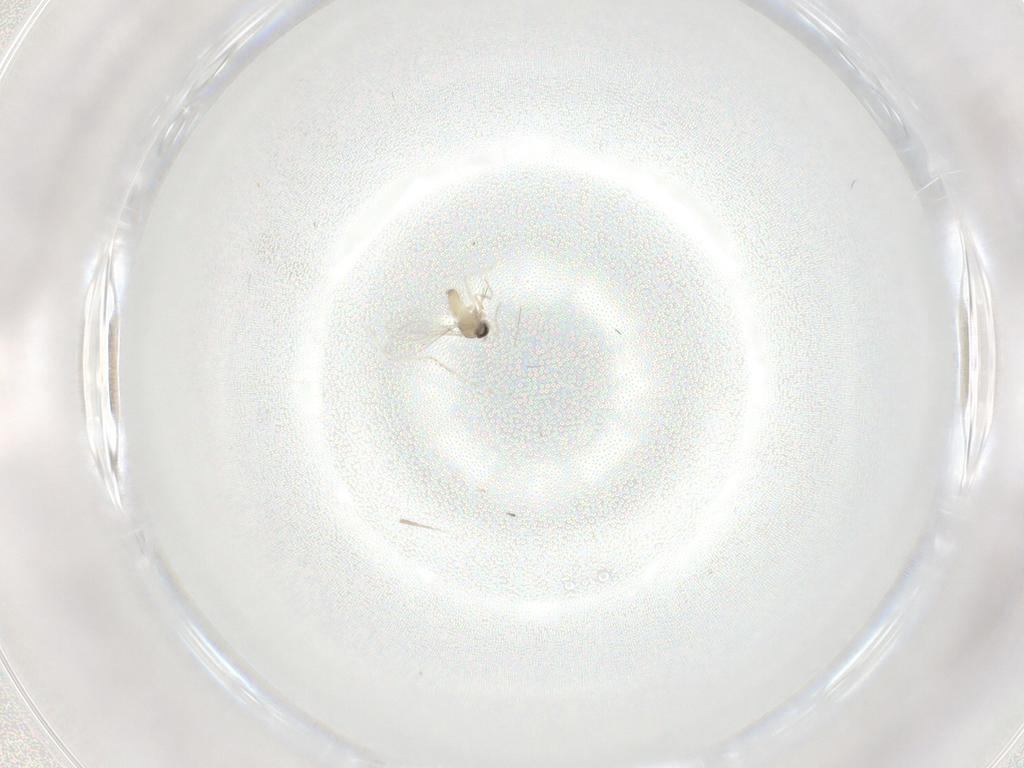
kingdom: Animalia
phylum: Arthropoda
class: Insecta
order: Diptera
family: Cecidomyiidae
